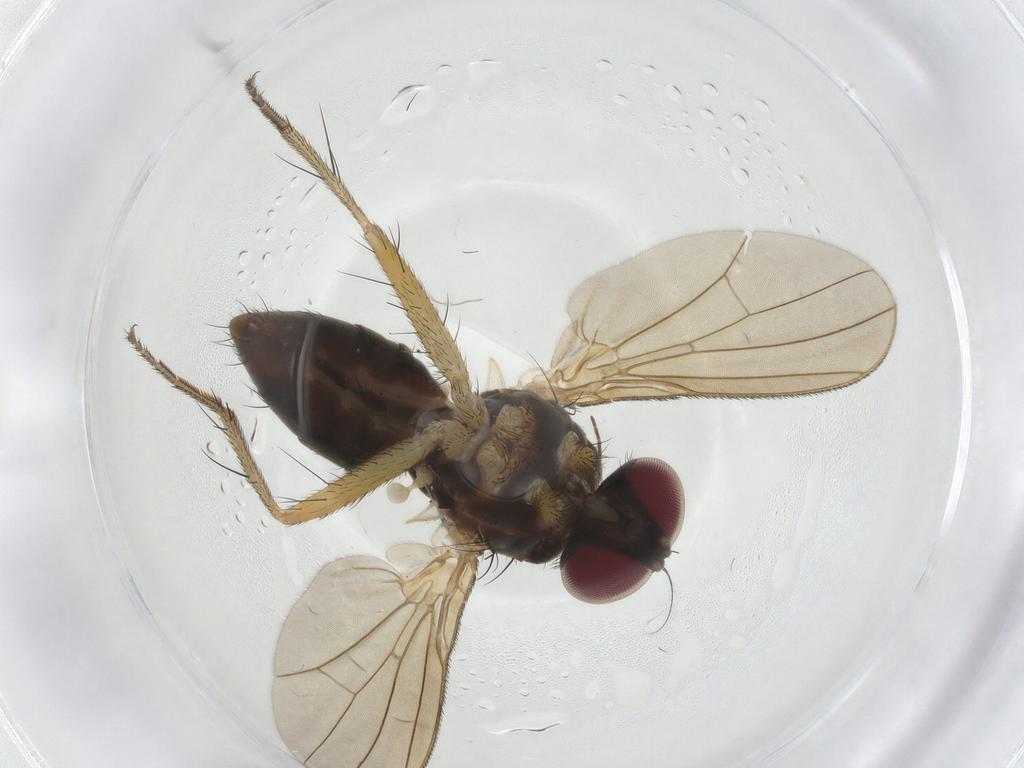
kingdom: Animalia
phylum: Arthropoda
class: Insecta
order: Diptera
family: Anthomyiidae
